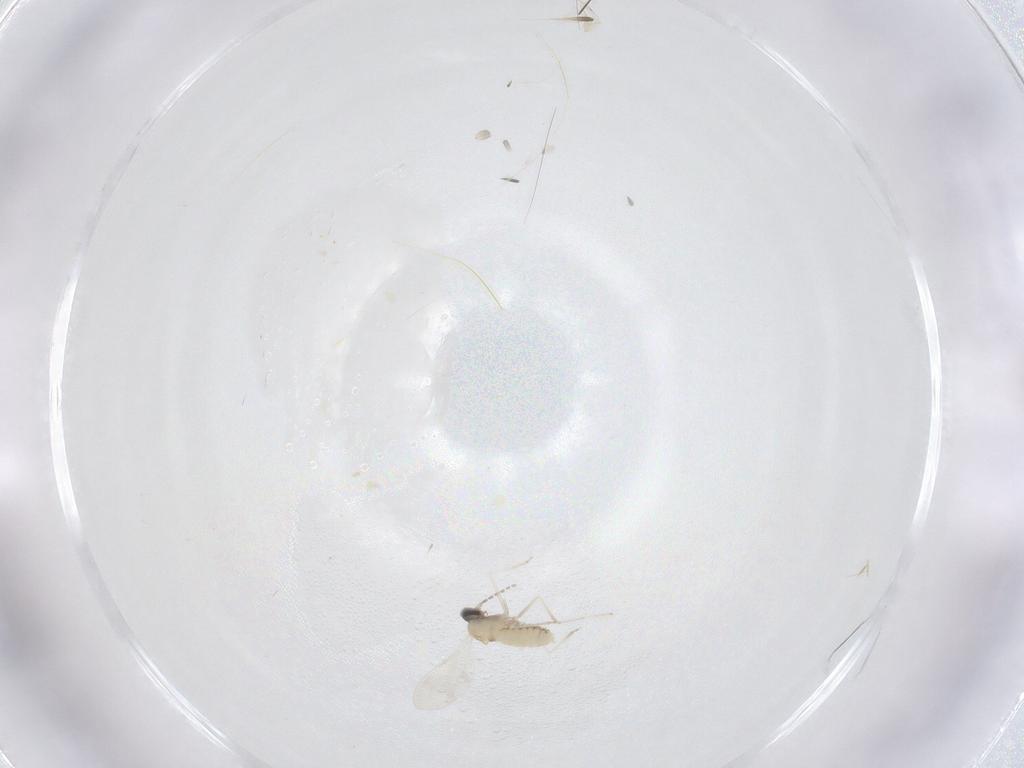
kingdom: Animalia
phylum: Arthropoda
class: Insecta
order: Diptera
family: Cecidomyiidae
